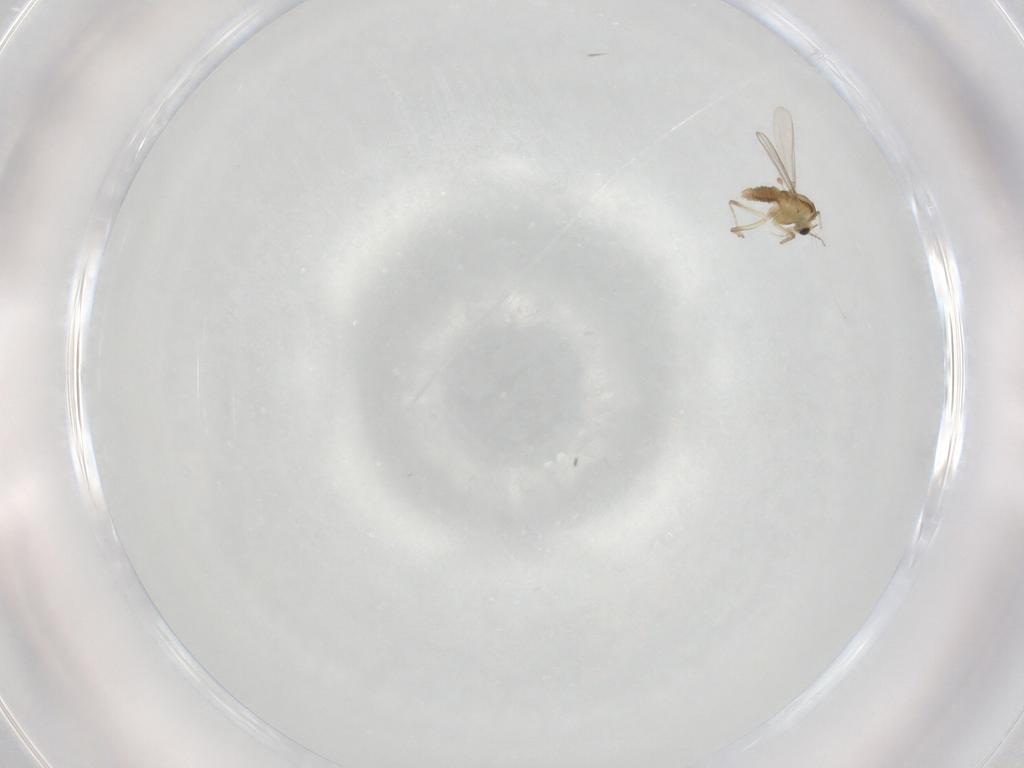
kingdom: Animalia
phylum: Arthropoda
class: Insecta
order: Diptera
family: Chironomidae
